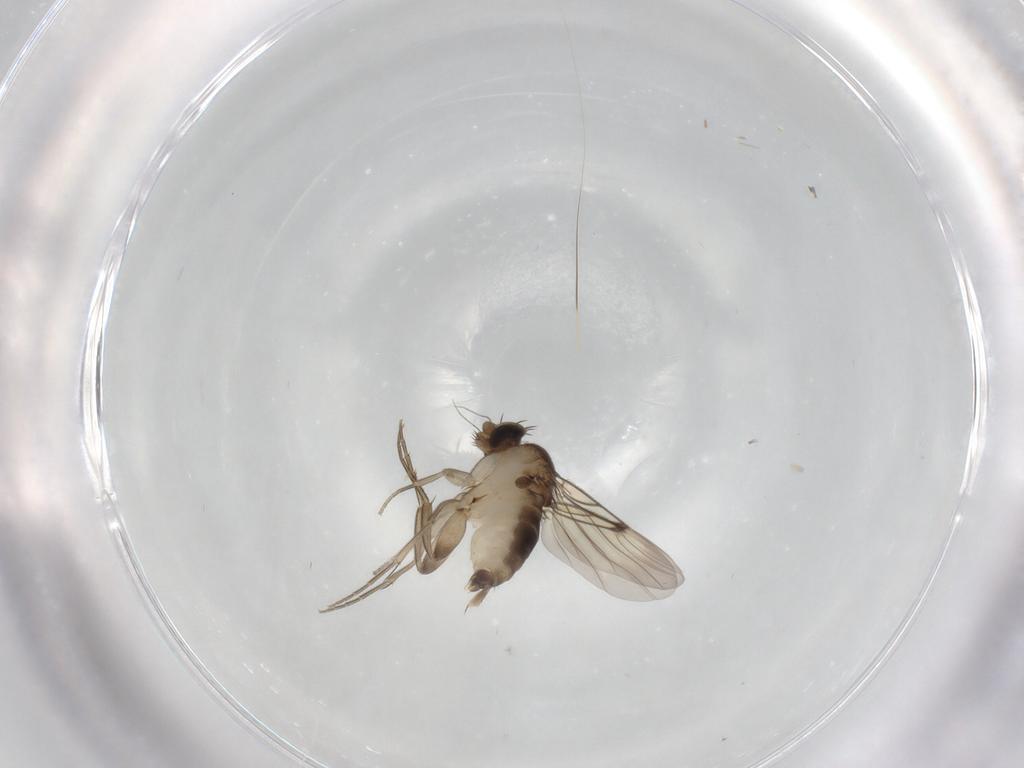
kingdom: Animalia
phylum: Arthropoda
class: Insecta
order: Diptera
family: Phoridae
